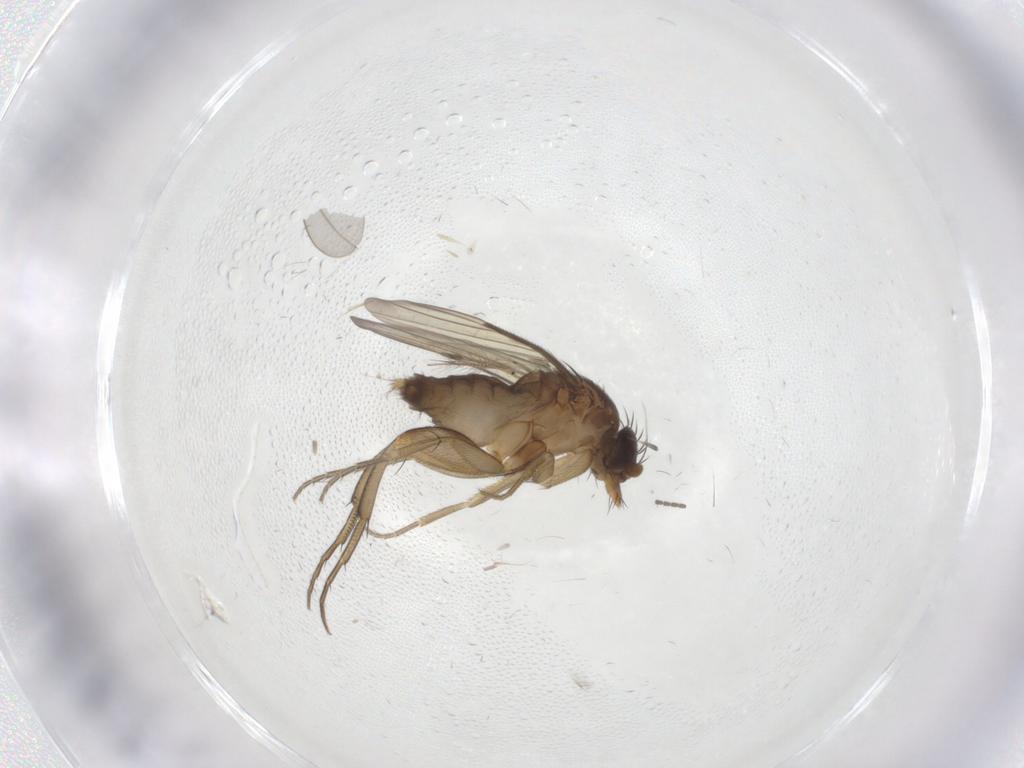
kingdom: Animalia
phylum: Arthropoda
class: Insecta
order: Diptera
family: Phoridae
